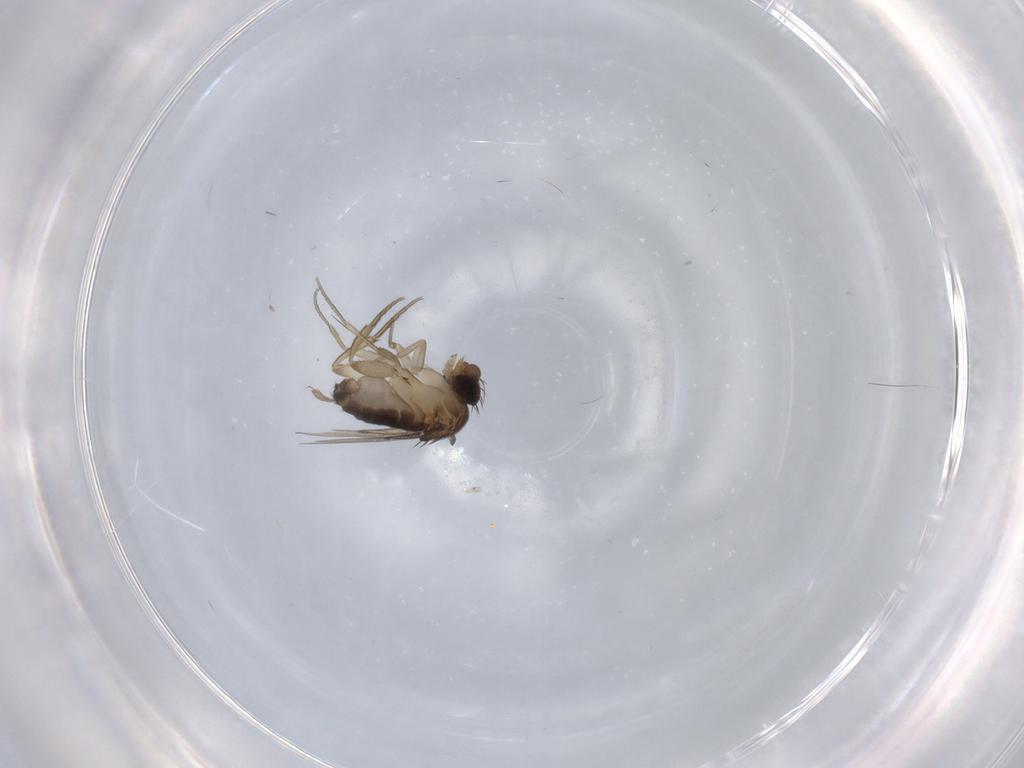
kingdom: Animalia
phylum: Arthropoda
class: Insecta
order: Diptera
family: Phoridae
